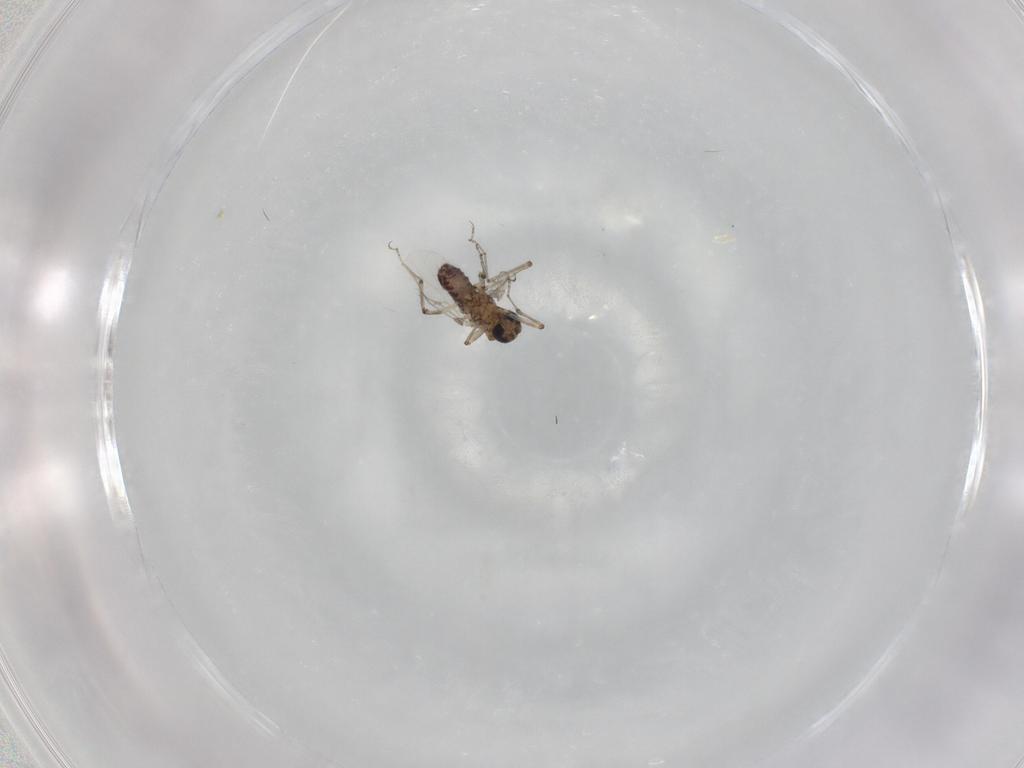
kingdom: Animalia
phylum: Arthropoda
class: Insecta
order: Diptera
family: Ceratopogonidae
